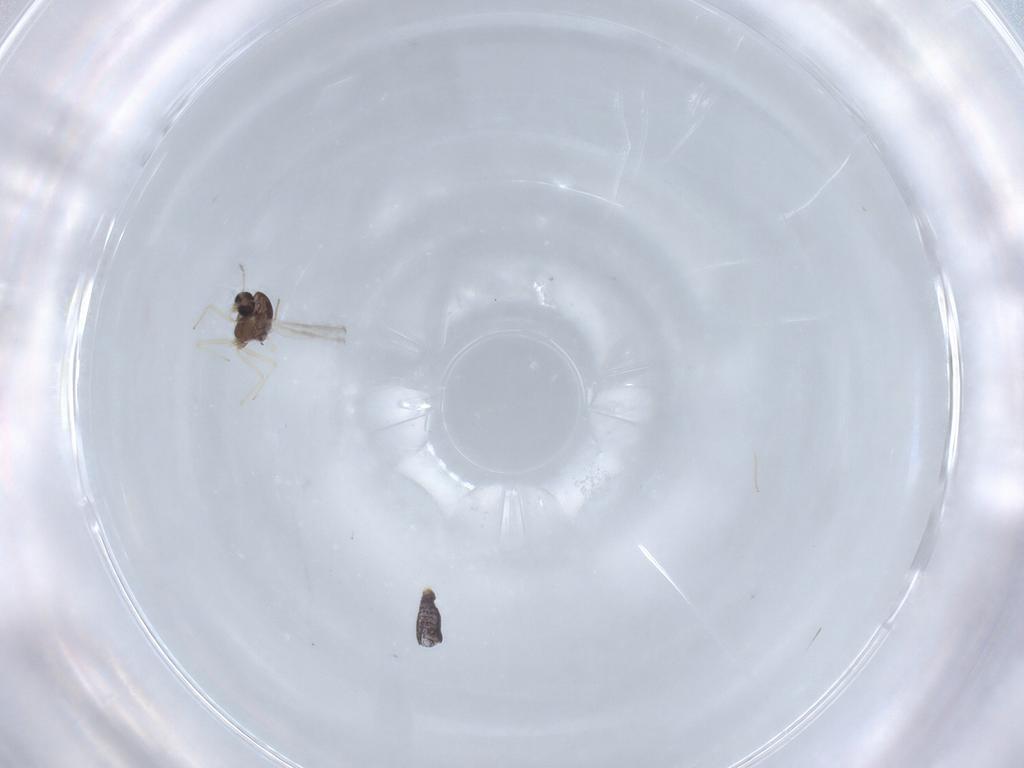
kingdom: Animalia
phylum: Arthropoda
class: Insecta
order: Diptera
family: Chironomidae
